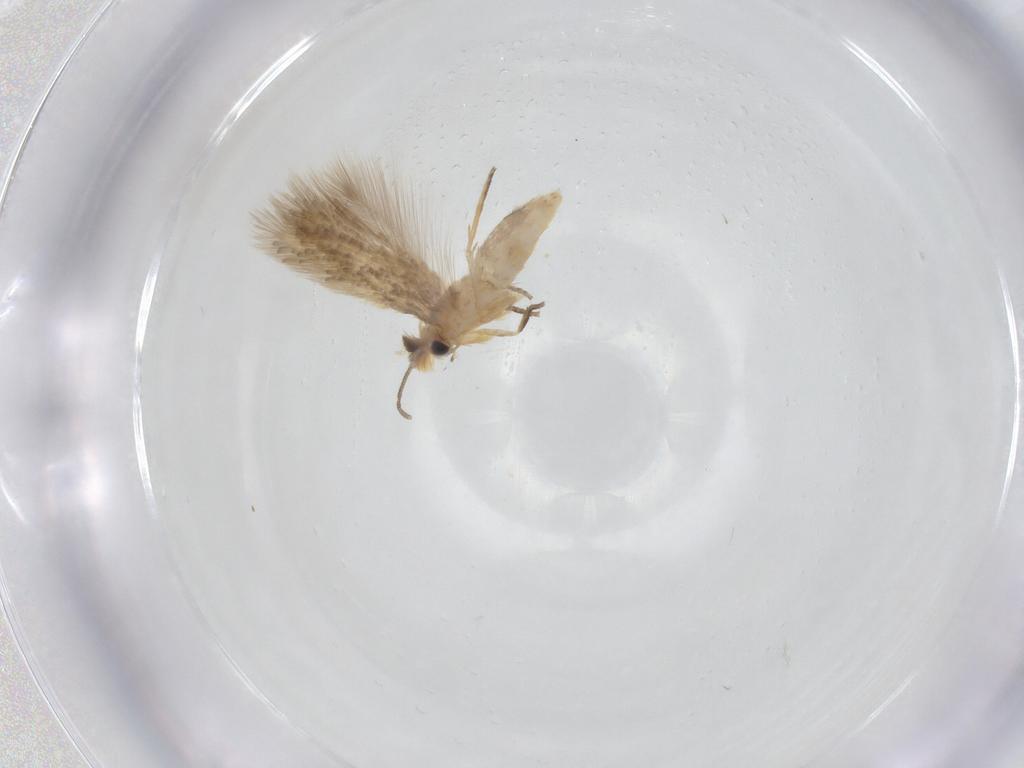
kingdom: Animalia
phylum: Arthropoda
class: Insecta
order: Lepidoptera
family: Nepticulidae
